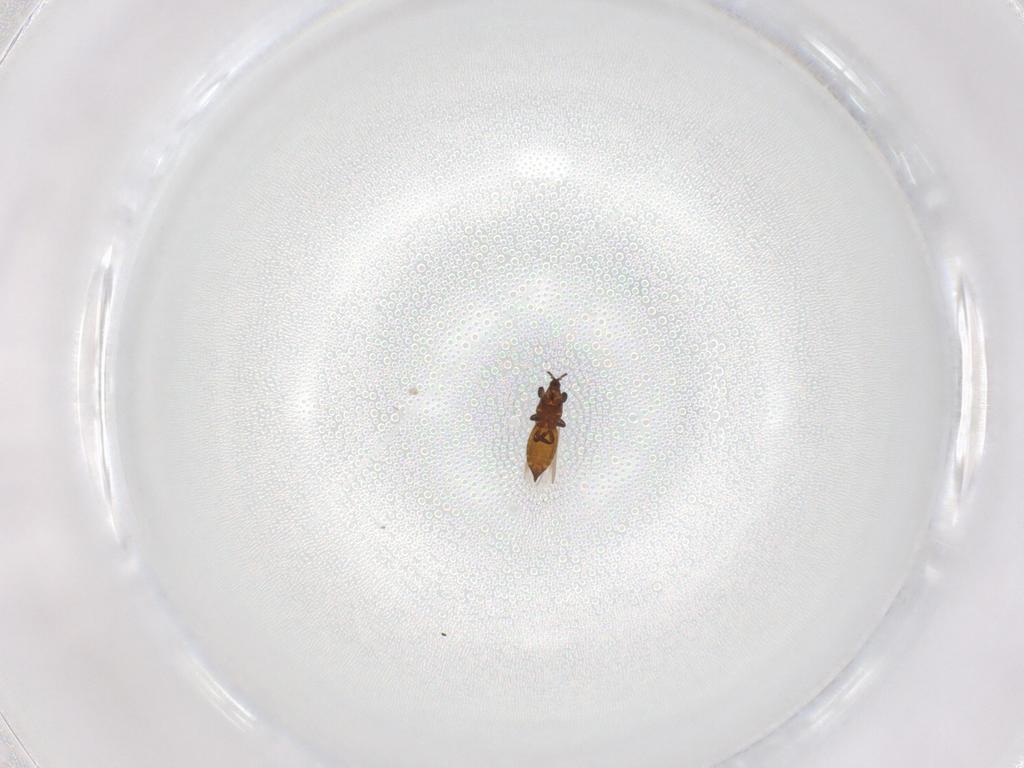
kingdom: Animalia
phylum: Arthropoda
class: Insecta
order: Thysanoptera
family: Thripidae
